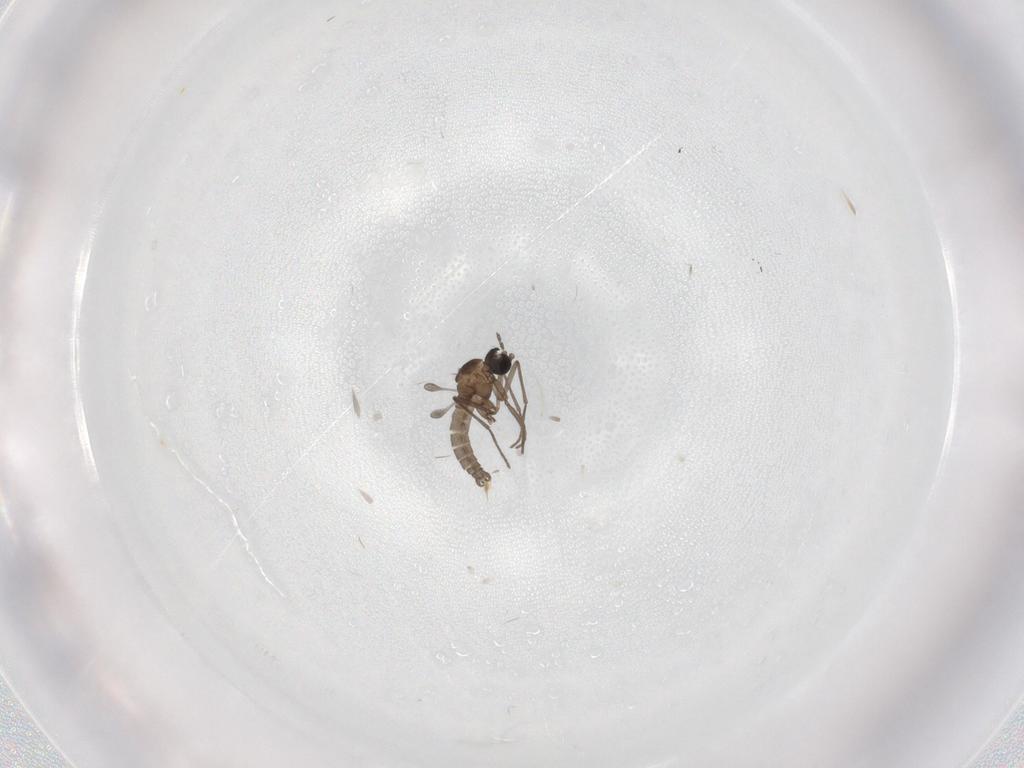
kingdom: Animalia
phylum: Arthropoda
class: Insecta
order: Diptera
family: Sciaridae
